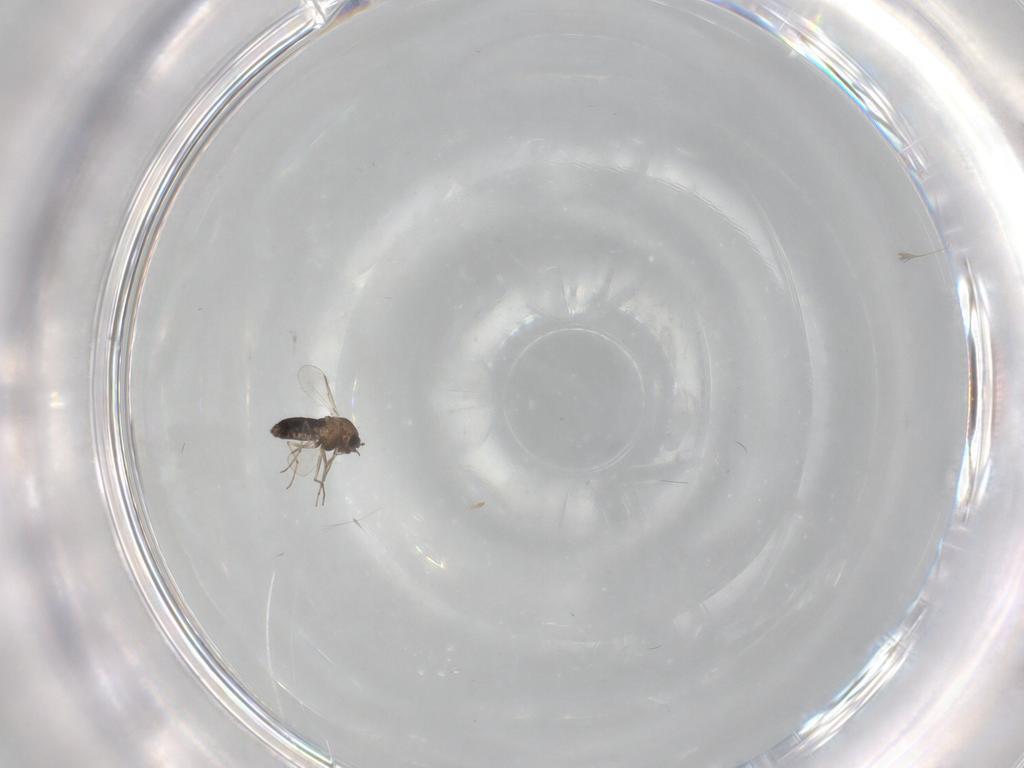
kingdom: Animalia
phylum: Arthropoda
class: Insecta
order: Diptera
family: Chironomidae
